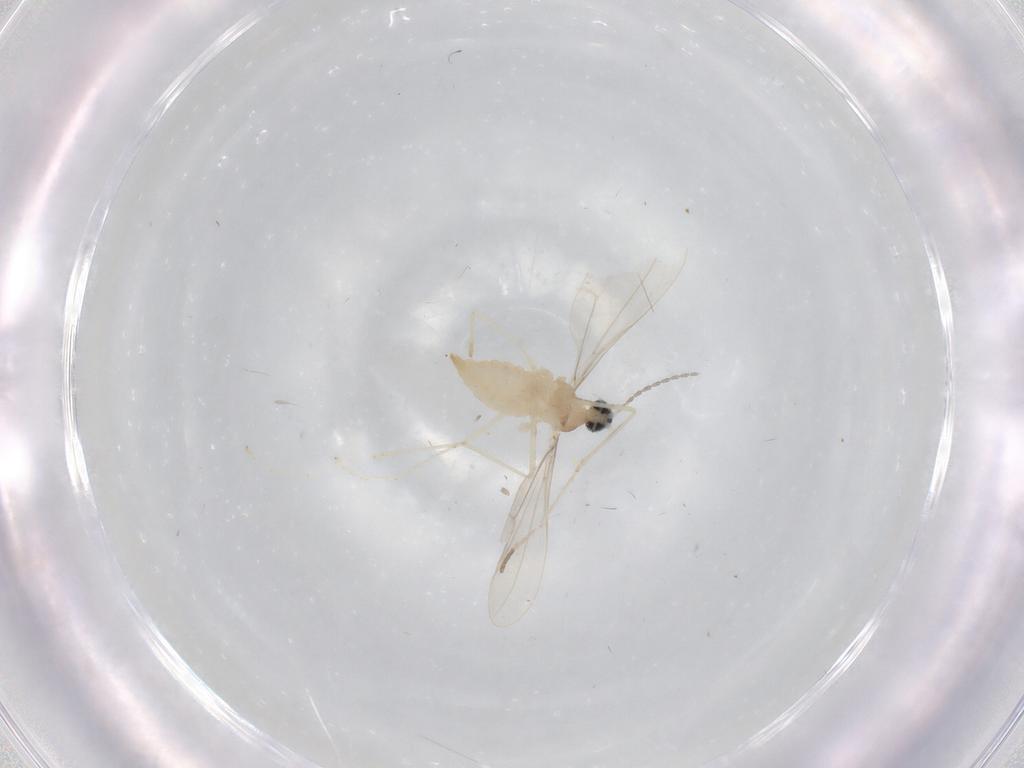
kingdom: Animalia
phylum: Arthropoda
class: Insecta
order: Diptera
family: Cecidomyiidae
